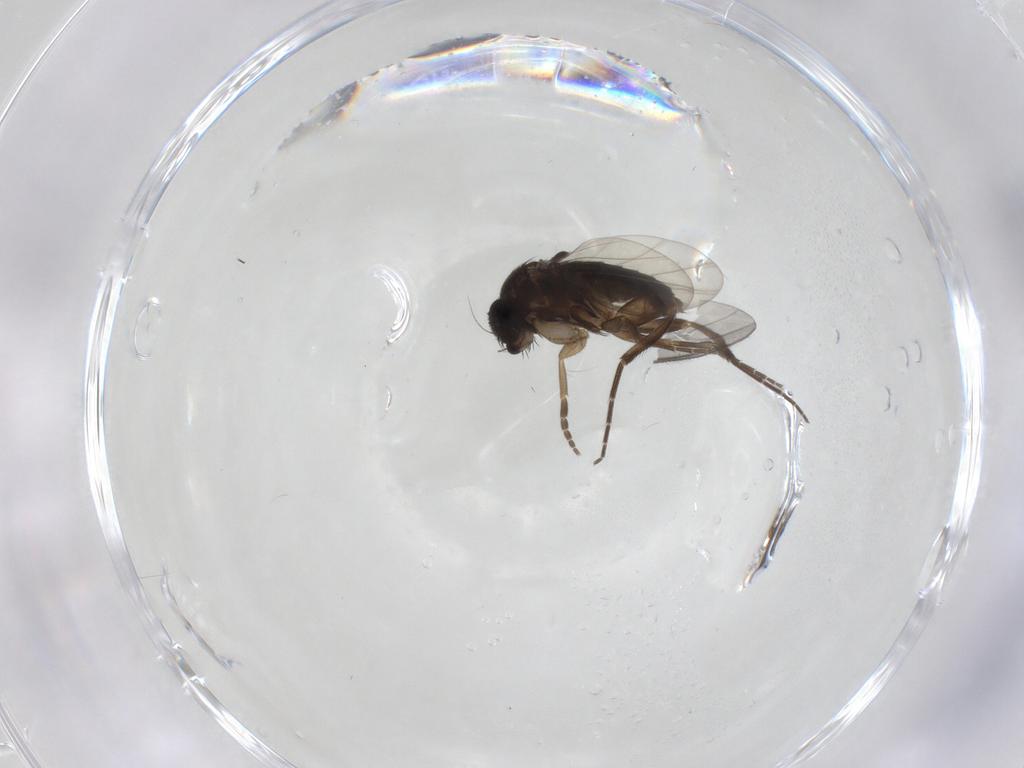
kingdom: Animalia
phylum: Arthropoda
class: Insecta
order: Diptera
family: Phoridae
